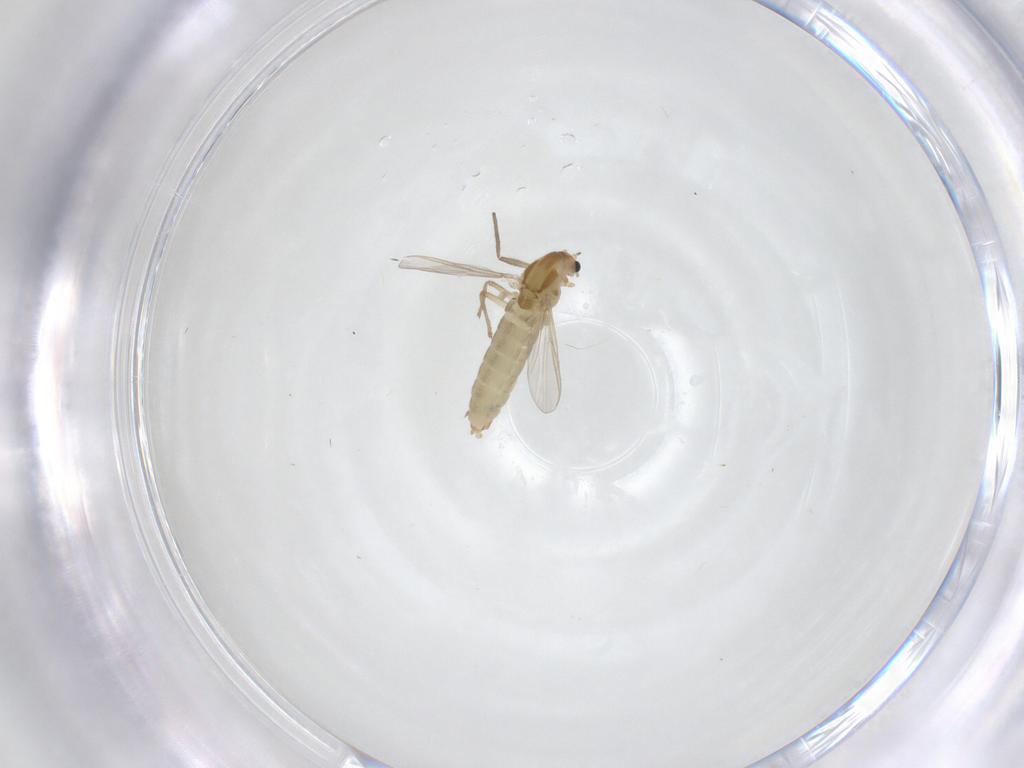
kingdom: Animalia
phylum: Arthropoda
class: Insecta
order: Diptera
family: Chironomidae
